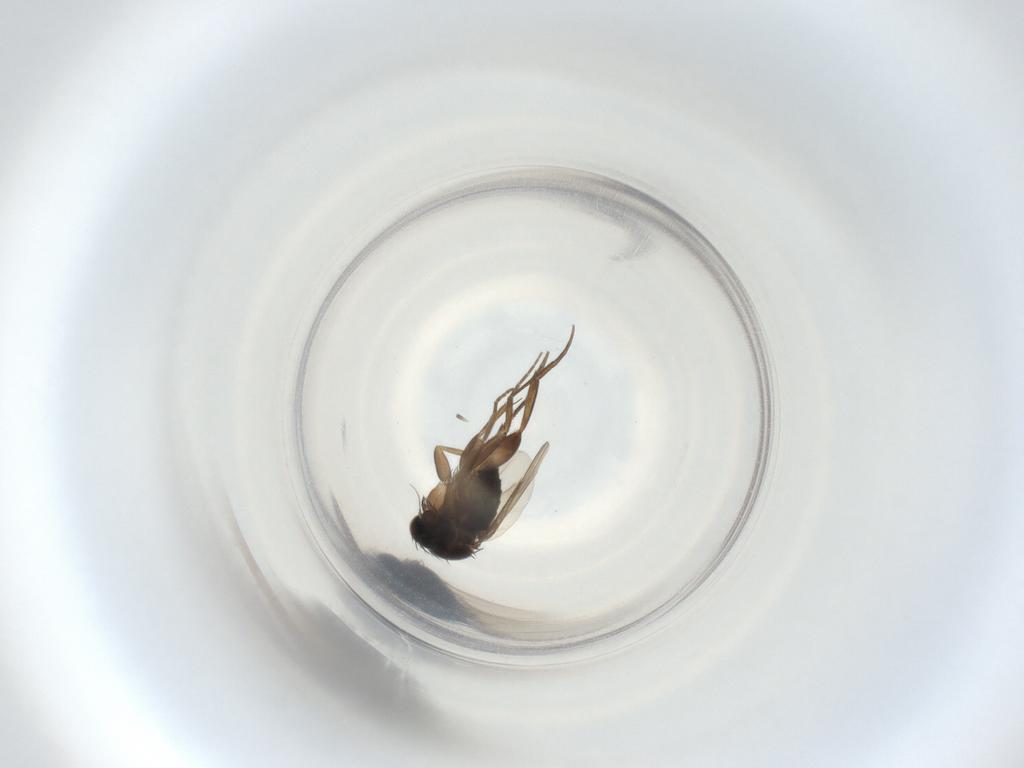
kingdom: Animalia
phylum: Arthropoda
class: Insecta
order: Diptera
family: Phoridae
